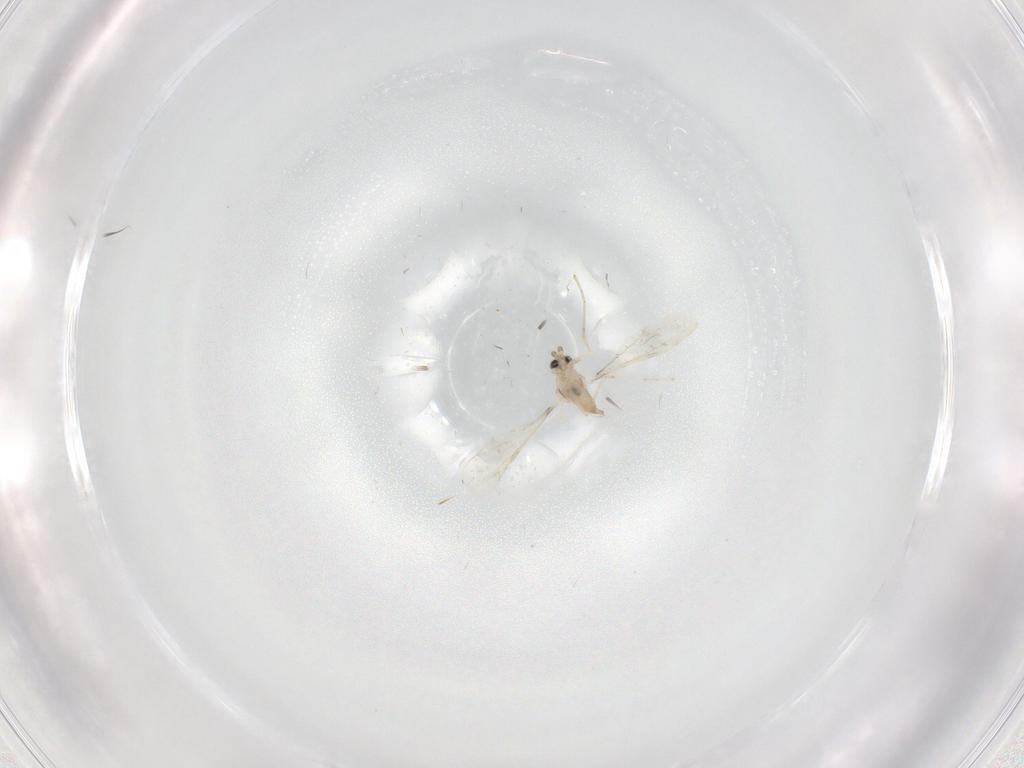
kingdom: Animalia
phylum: Arthropoda
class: Insecta
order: Diptera
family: Cecidomyiidae
